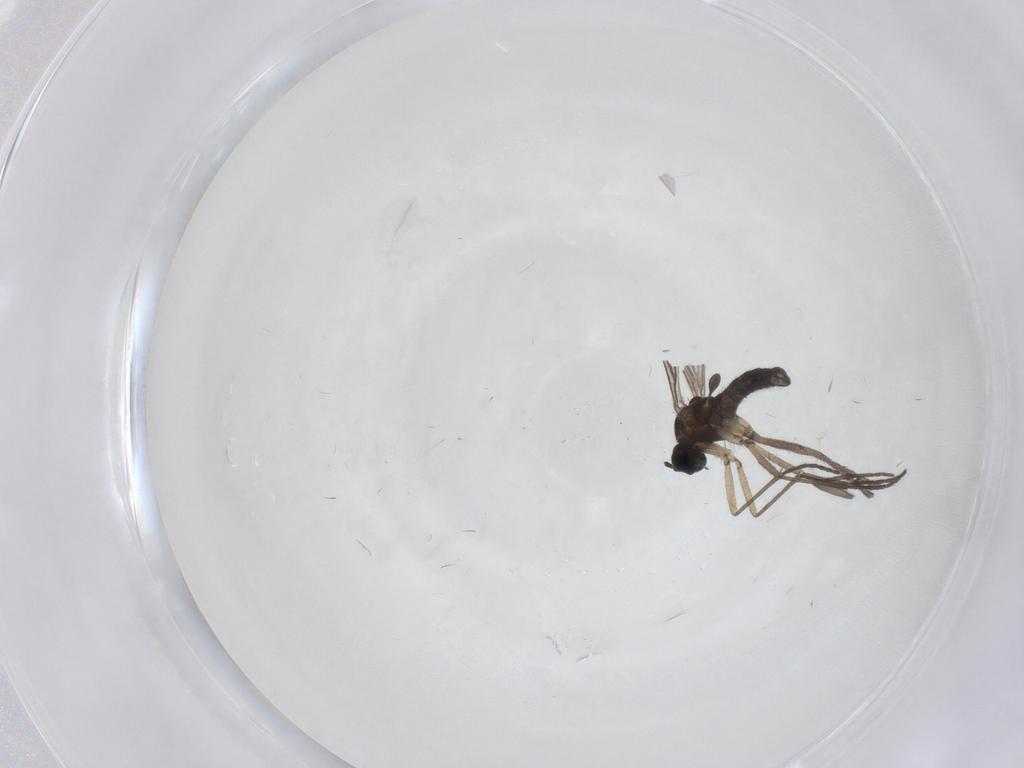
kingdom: Animalia
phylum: Arthropoda
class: Insecta
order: Diptera
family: Sciaridae
